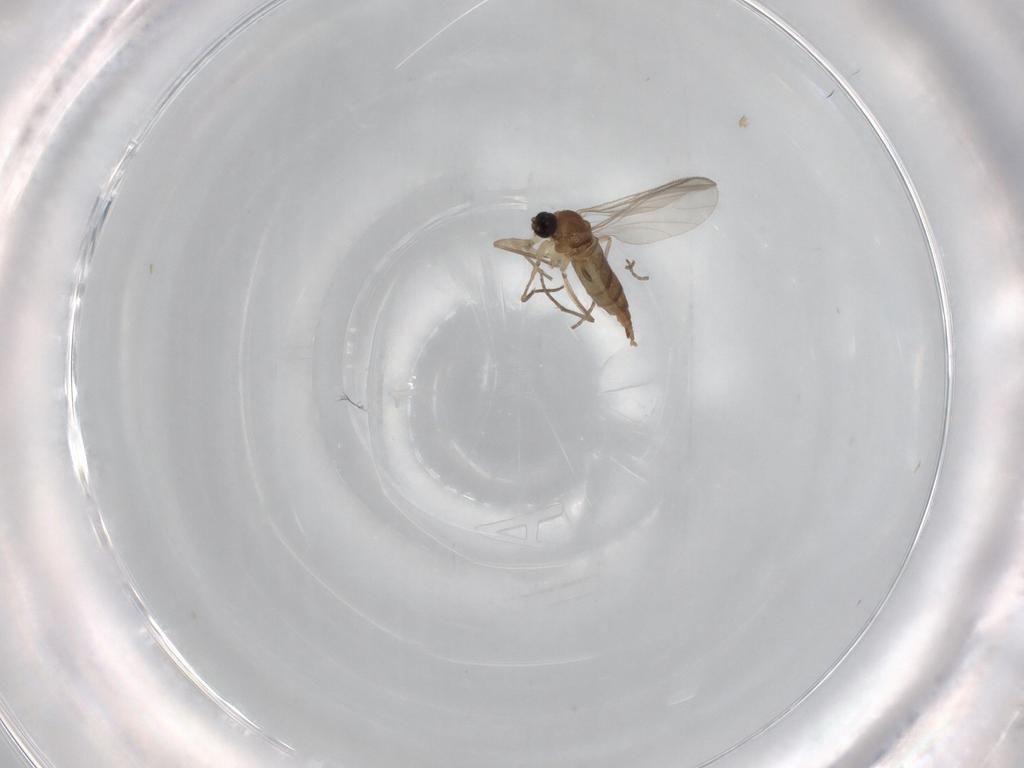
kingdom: Animalia
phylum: Arthropoda
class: Insecta
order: Diptera
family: Sciaridae
